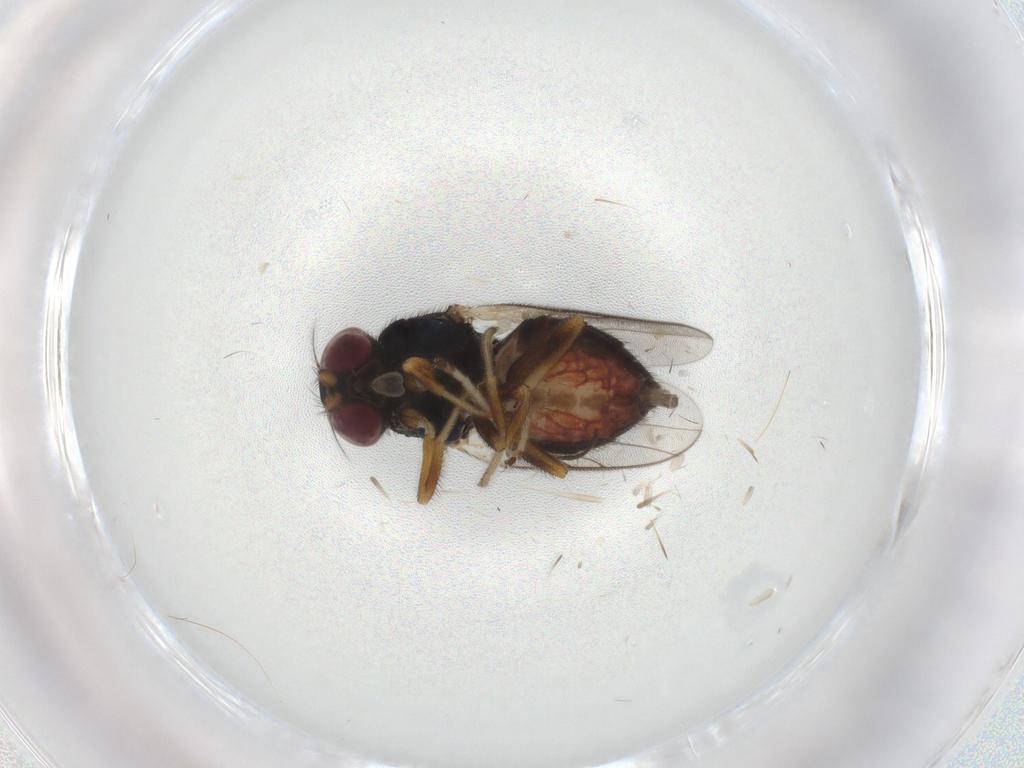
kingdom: Animalia
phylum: Arthropoda
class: Insecta
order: Diptera
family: Chloropidae
